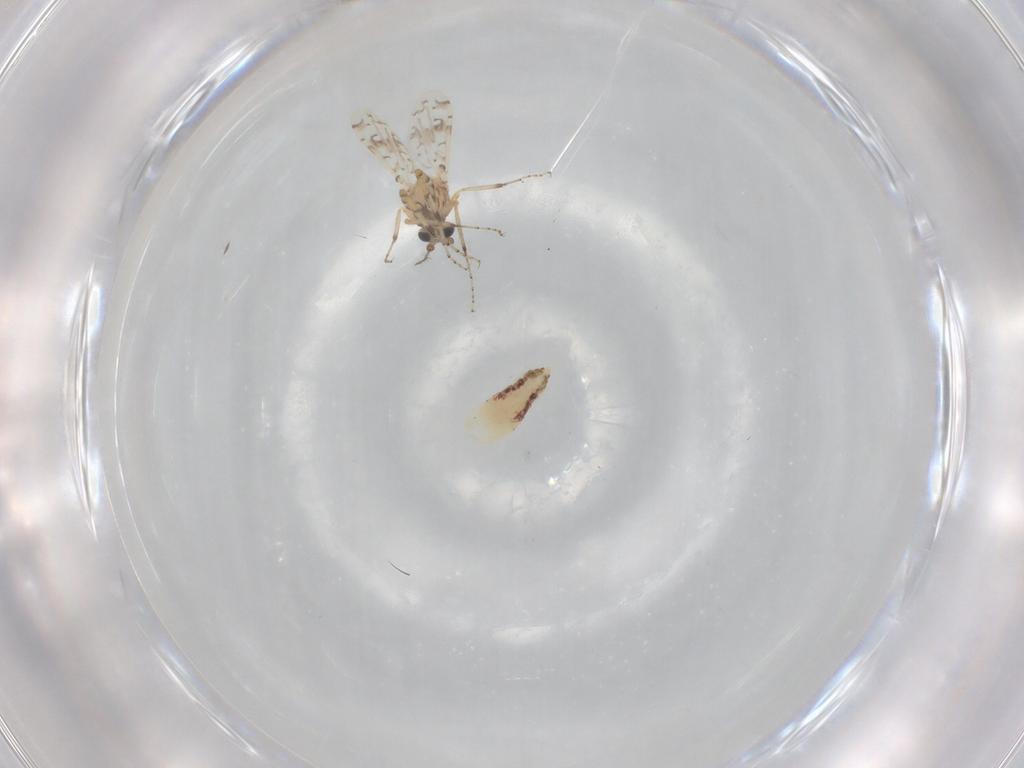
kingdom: Animalia
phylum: Arthropoda
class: Insecta
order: Diptera
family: Ceratopogonidae
